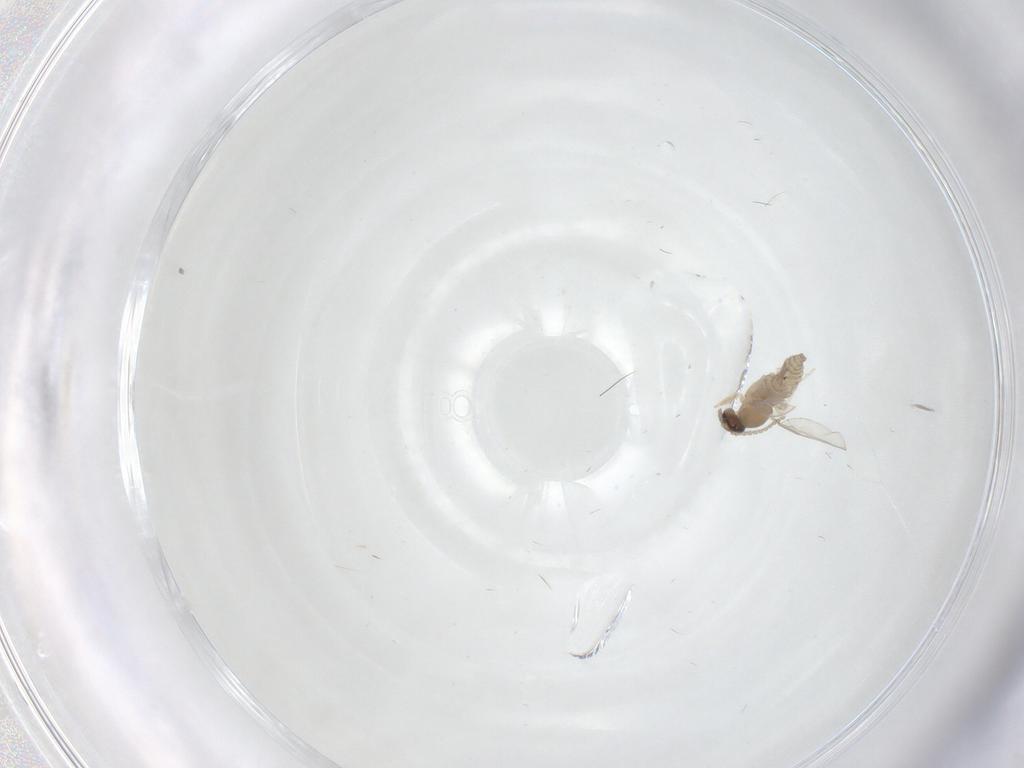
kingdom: Animalia
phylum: Arthropoda
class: Insecta
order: Diptera
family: Cecidomyiidae
